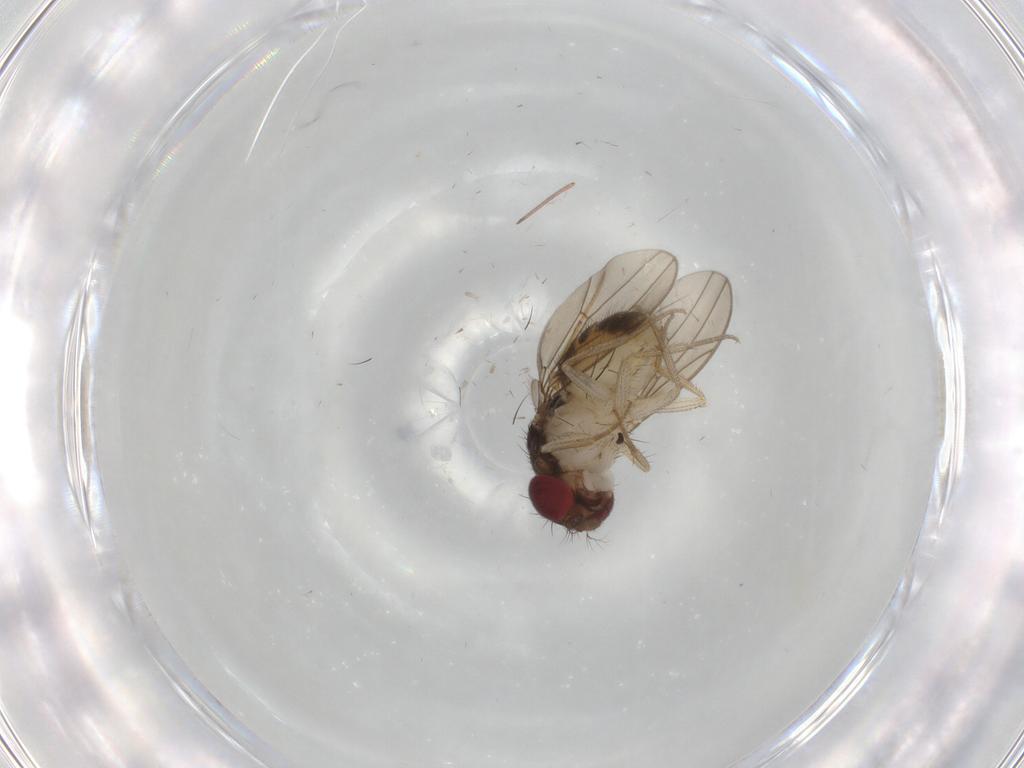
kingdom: Animalia
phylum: Arthropoda
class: Insecta
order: Diptera
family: Drosophilidae
